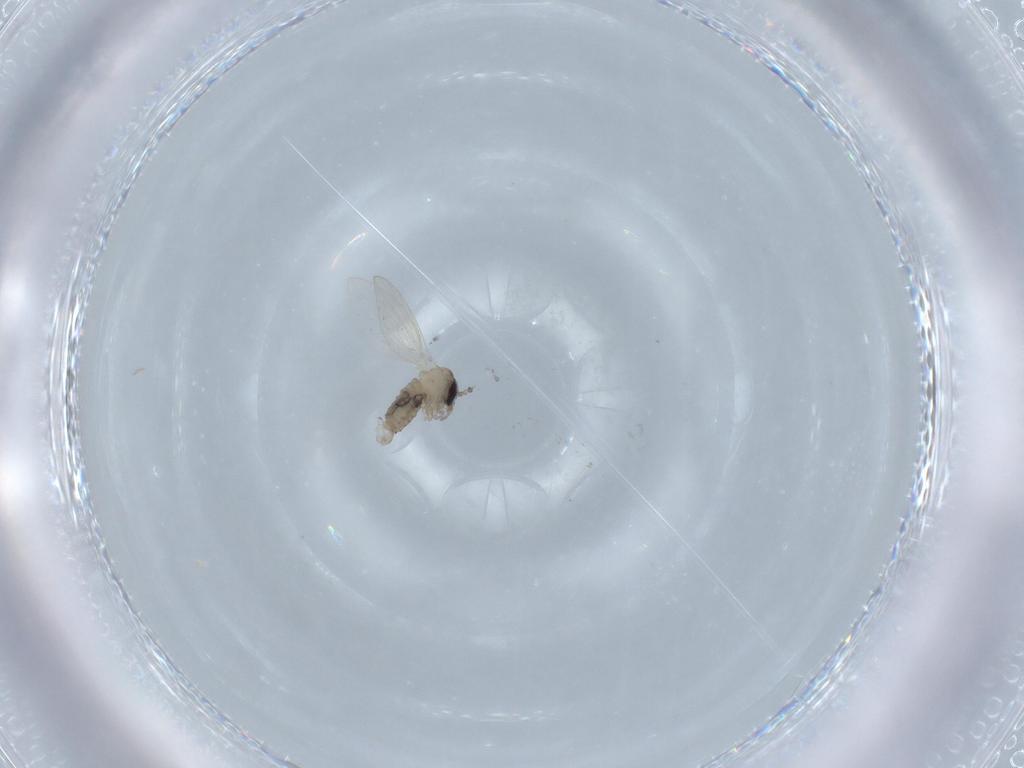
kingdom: Animalia
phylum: Arthropoda
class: Insecta
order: Diptera
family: Psychodidae
